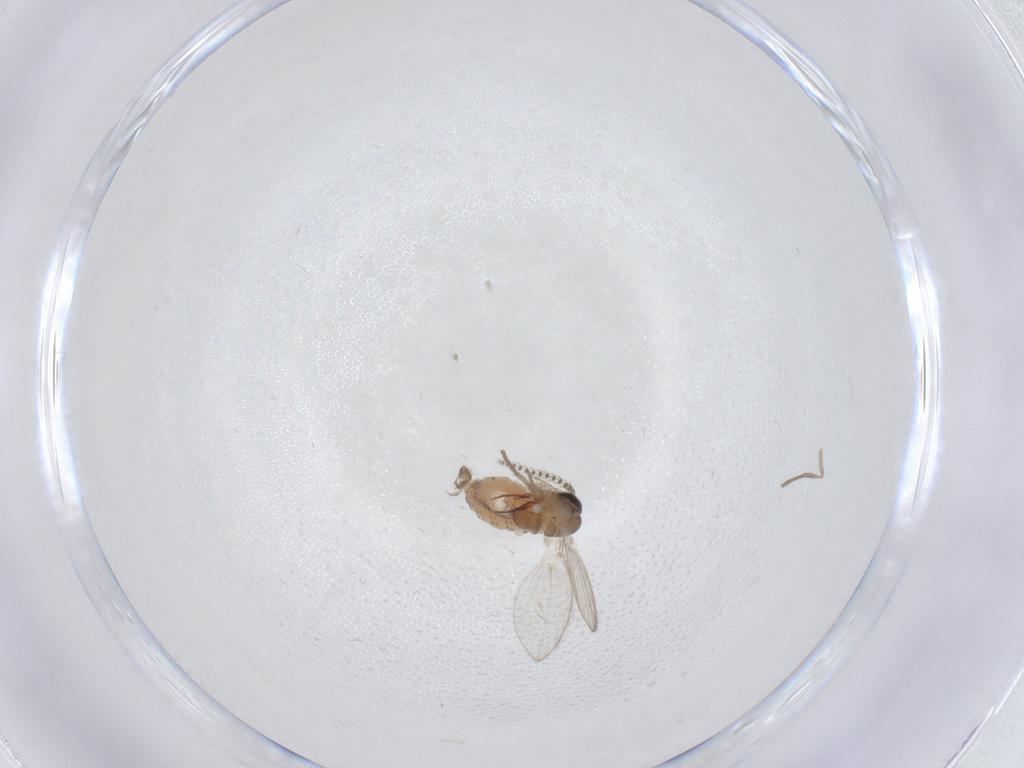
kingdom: Animalia
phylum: Arthropoda
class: Insecta
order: Diptera
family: Psychodidae
